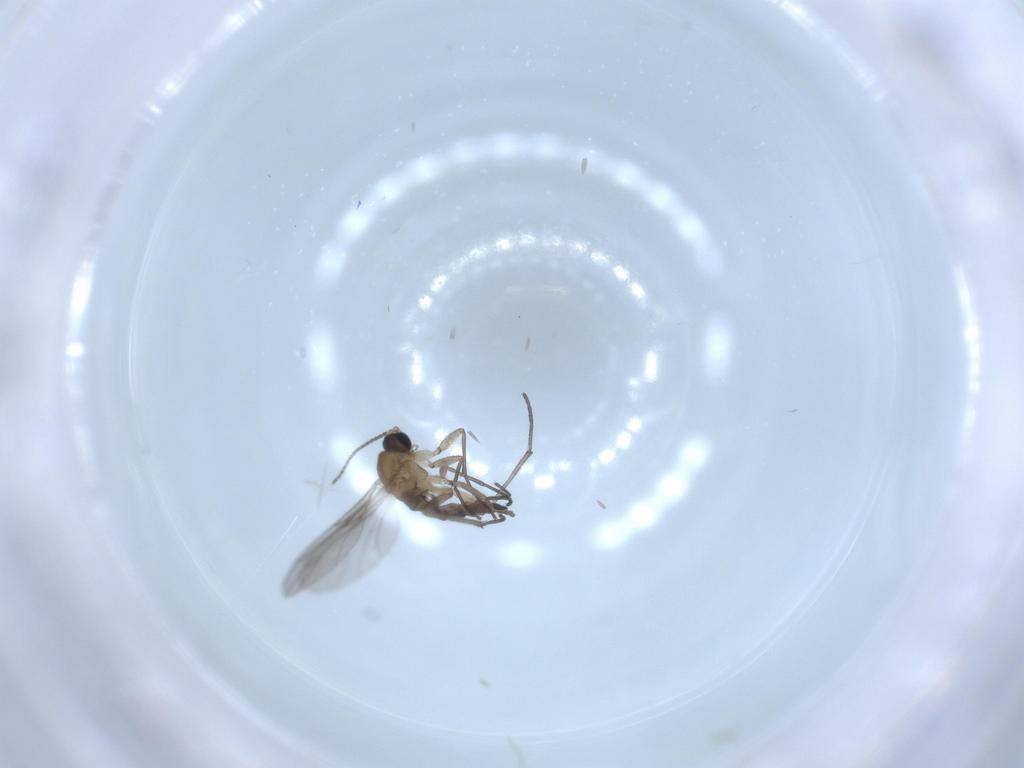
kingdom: Animalia
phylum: Arthropoda
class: Insecta
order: Diptera
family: Sciaridae
